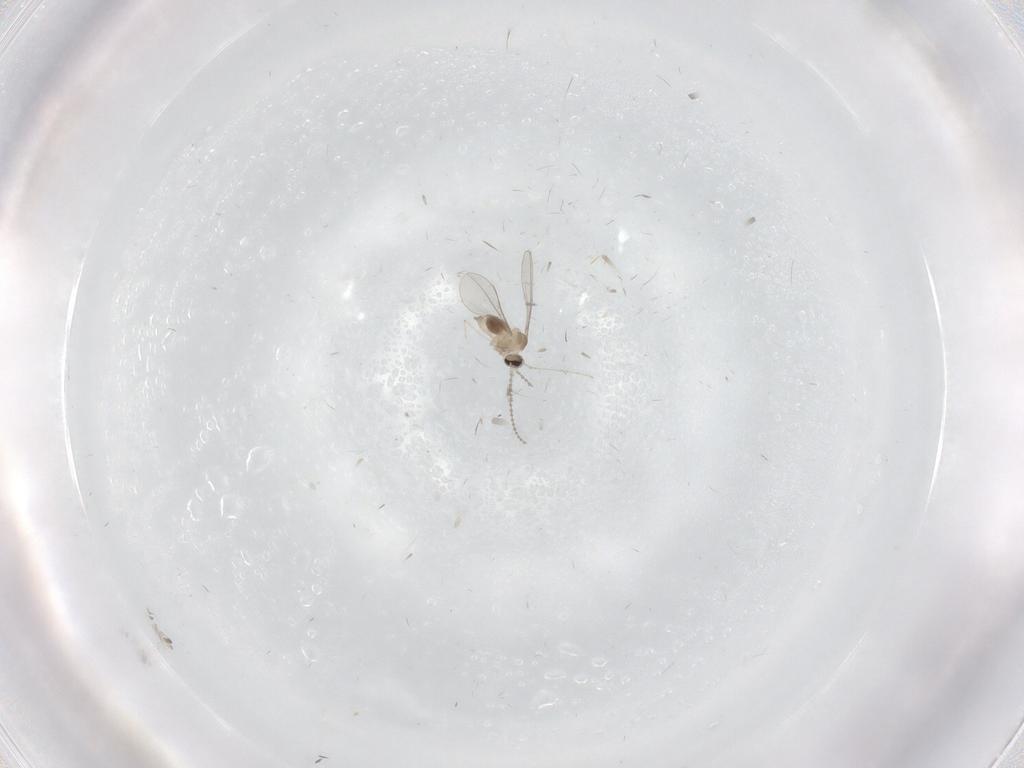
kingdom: Animalia
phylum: Arthropoda
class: Insecta
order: Diptera
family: Cecidomyiidae
